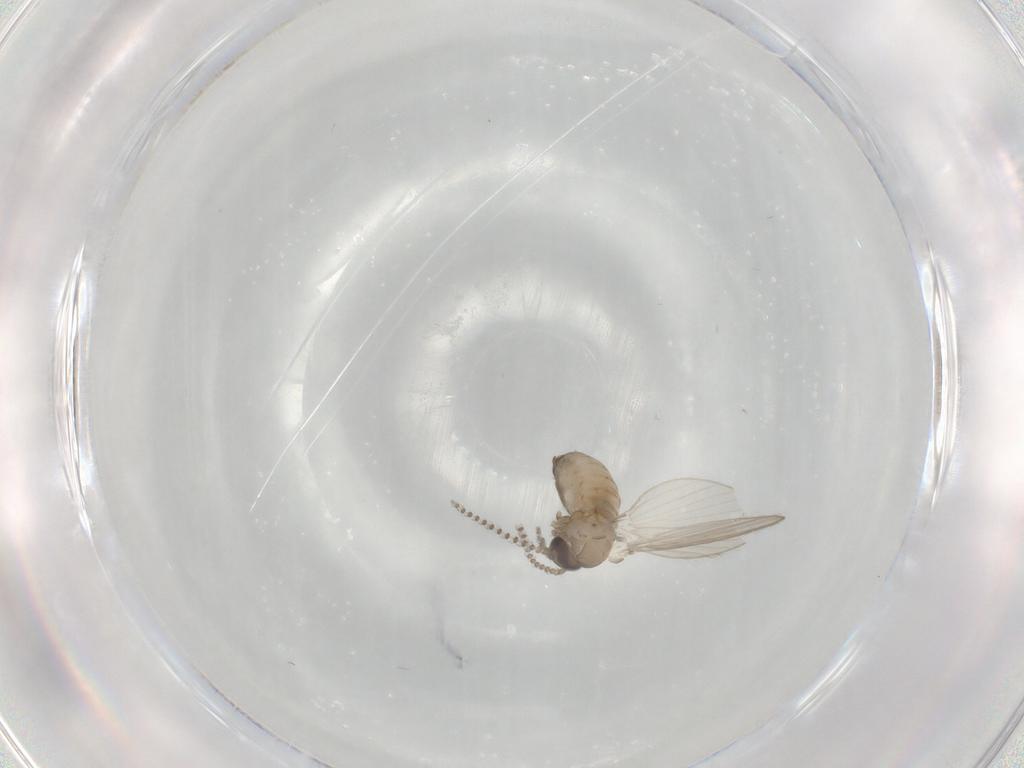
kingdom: Animalia
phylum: Arthropoda
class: Insecta
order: Diptera
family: Psychodidae
